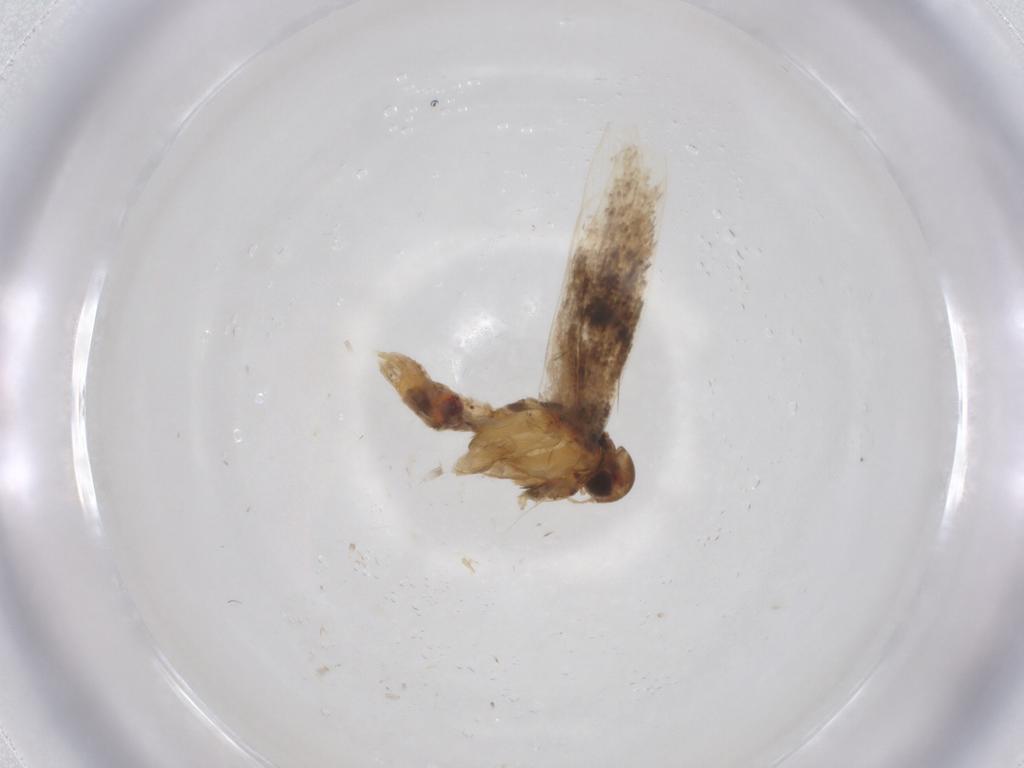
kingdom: Animalia
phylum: Arthropoda
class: Insecta
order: Lepidoptera
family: Gelechiidae
